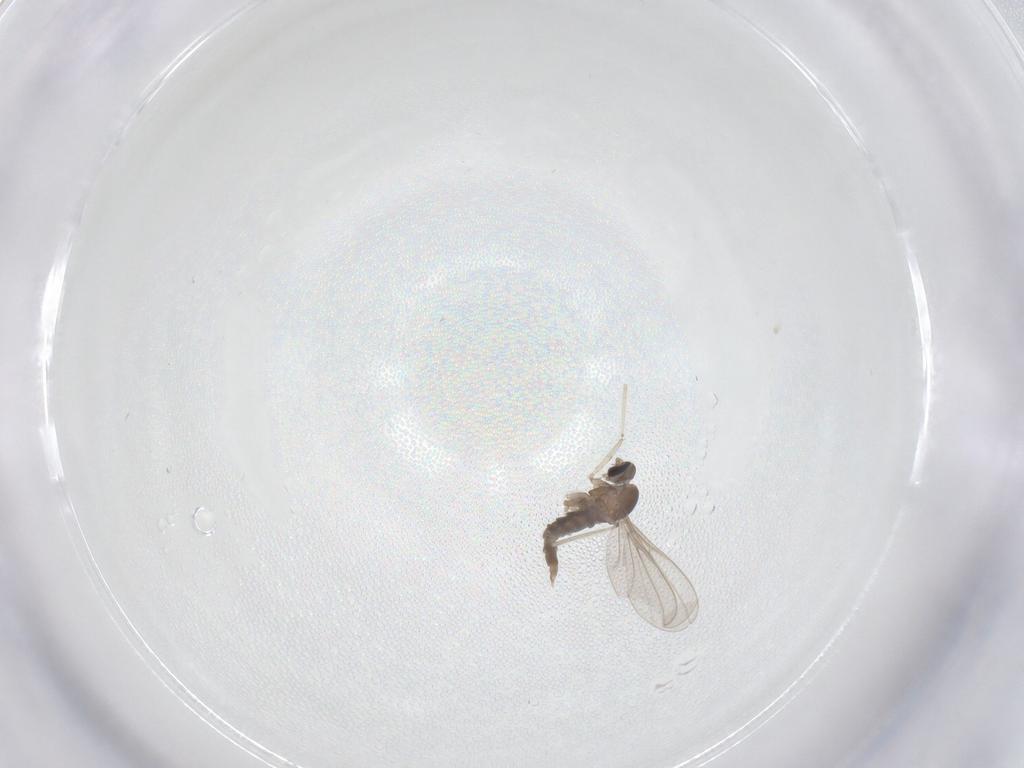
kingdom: Animalia
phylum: Arthropoda
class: Insecta
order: Diptera
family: Cecidomyiidae
